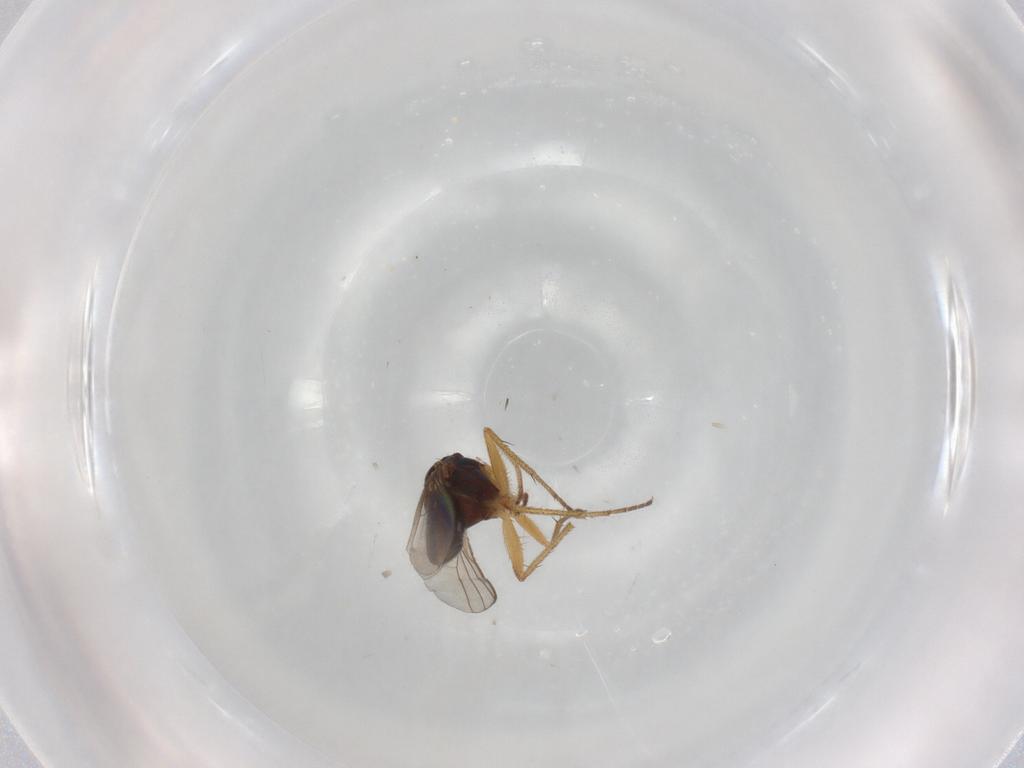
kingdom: Animalia
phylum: Arthropoda
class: Insecta
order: Diptera
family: Cecidomyiidae
